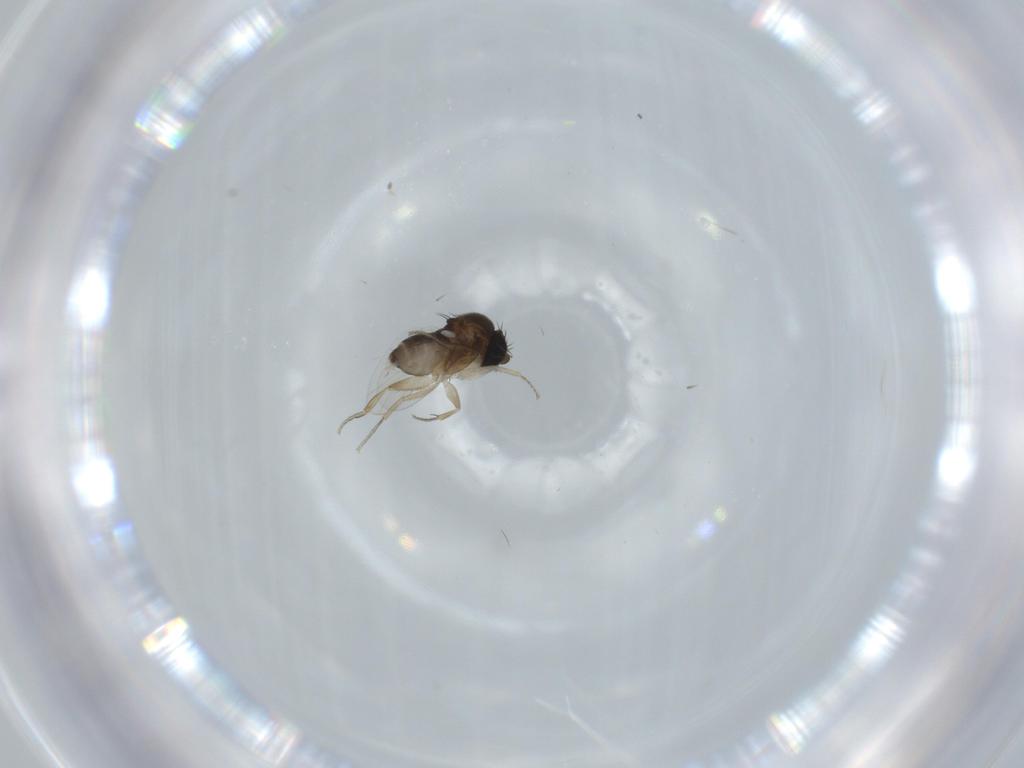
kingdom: Animalia
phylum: Arthropoda
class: Insecta
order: Diptera
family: Phoridae
